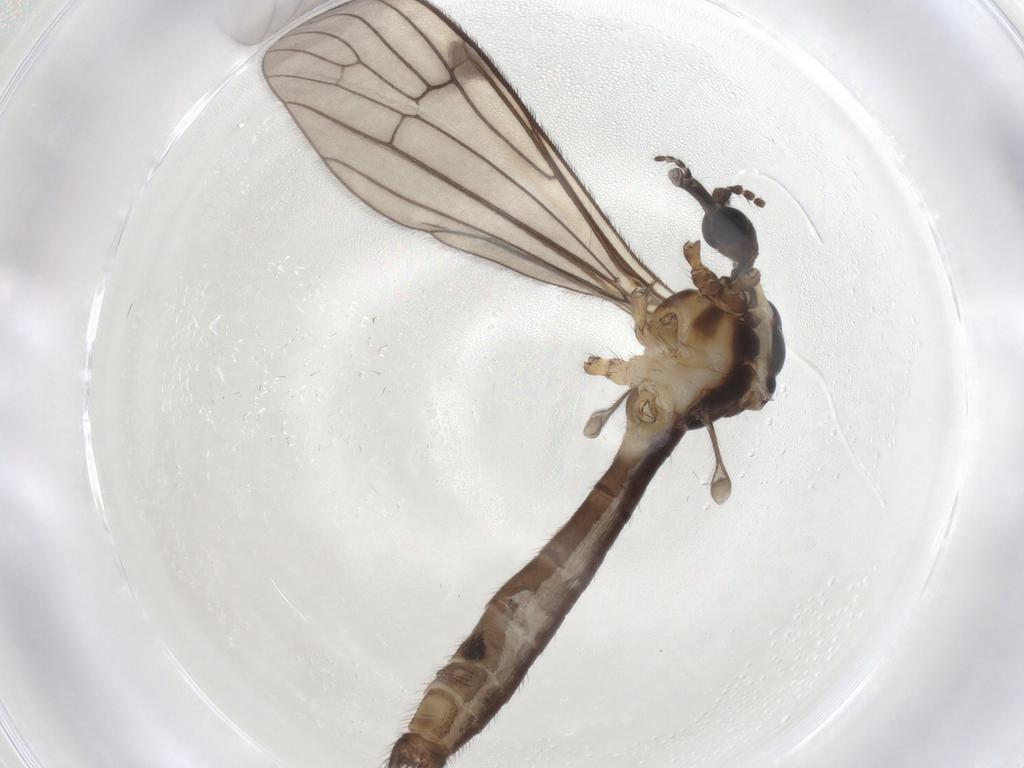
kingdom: Animalia
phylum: Arthropoda
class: Insecta
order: Diptera
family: Limoniidae
